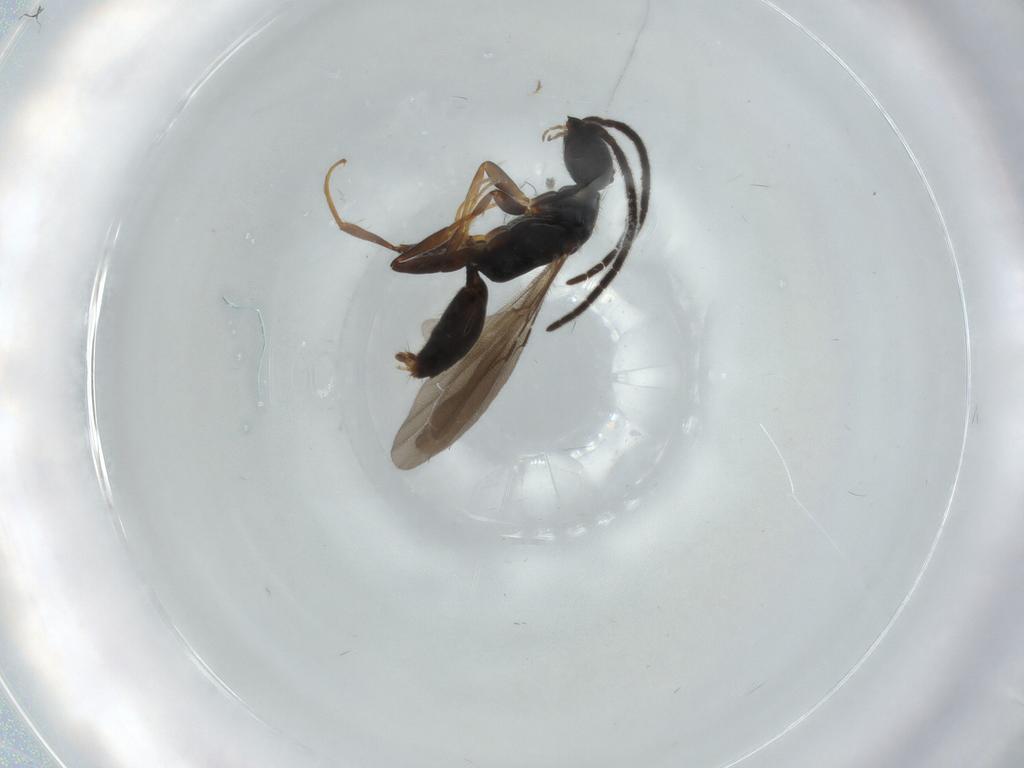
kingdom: Animalia
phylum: Arthropoda
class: Insecta
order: Hymenoptera
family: Bethylidae
